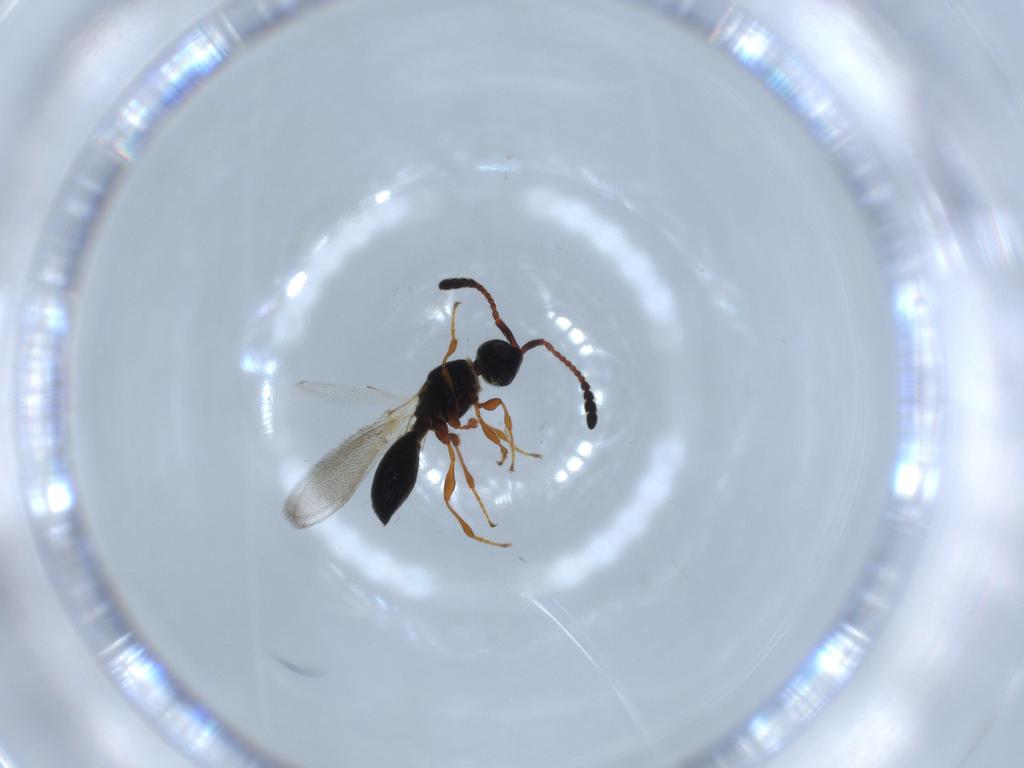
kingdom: Animalia
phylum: Arthropoda
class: Insecta
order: Hymenoptera
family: Diapriidae
